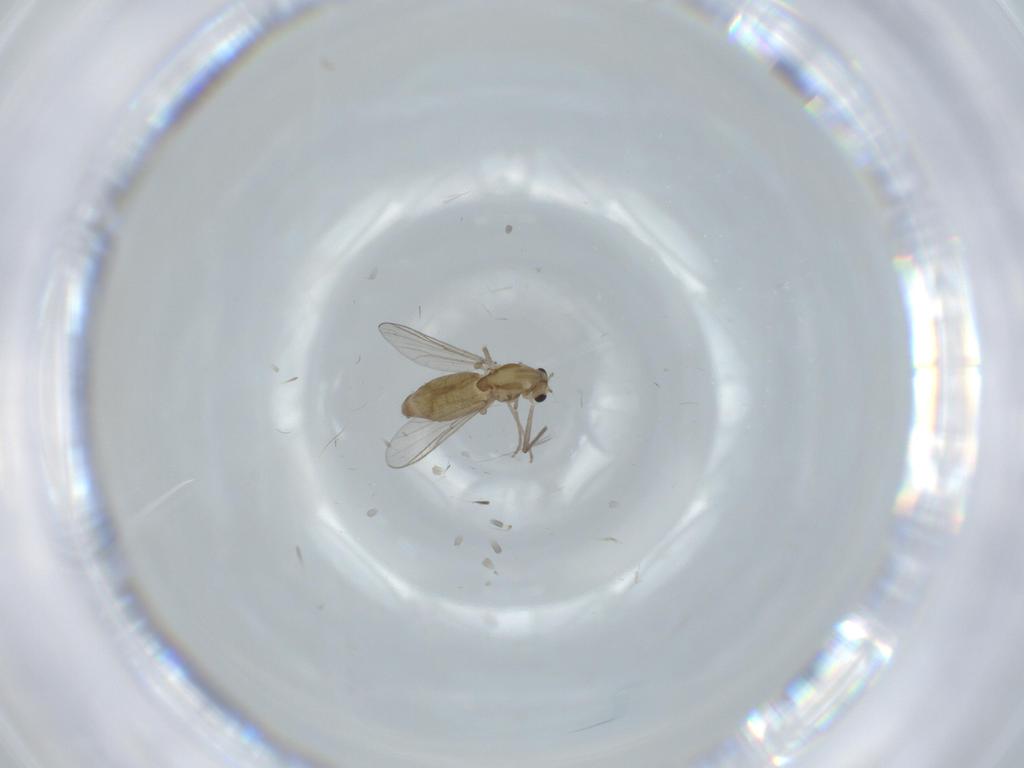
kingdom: Animalia
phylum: Arthropoda
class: Insecta
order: Diptera
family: Chironomidae
